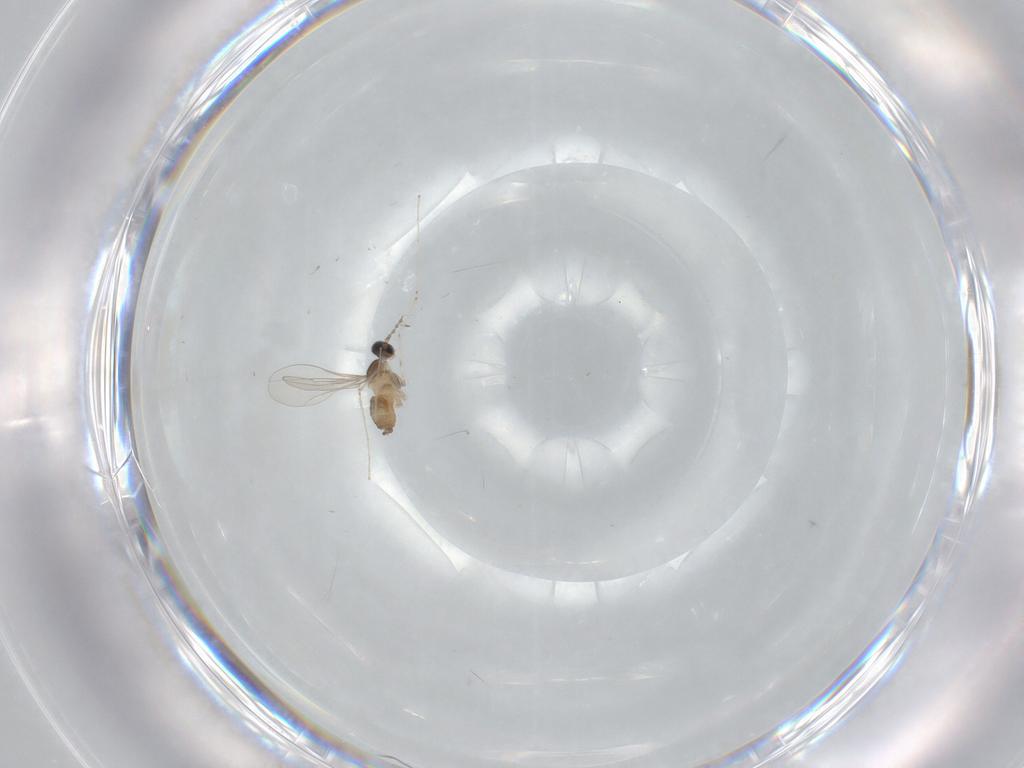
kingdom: Animalia
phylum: Arthropoda
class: Insecta
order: Diptera
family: Cecidomyiidae
